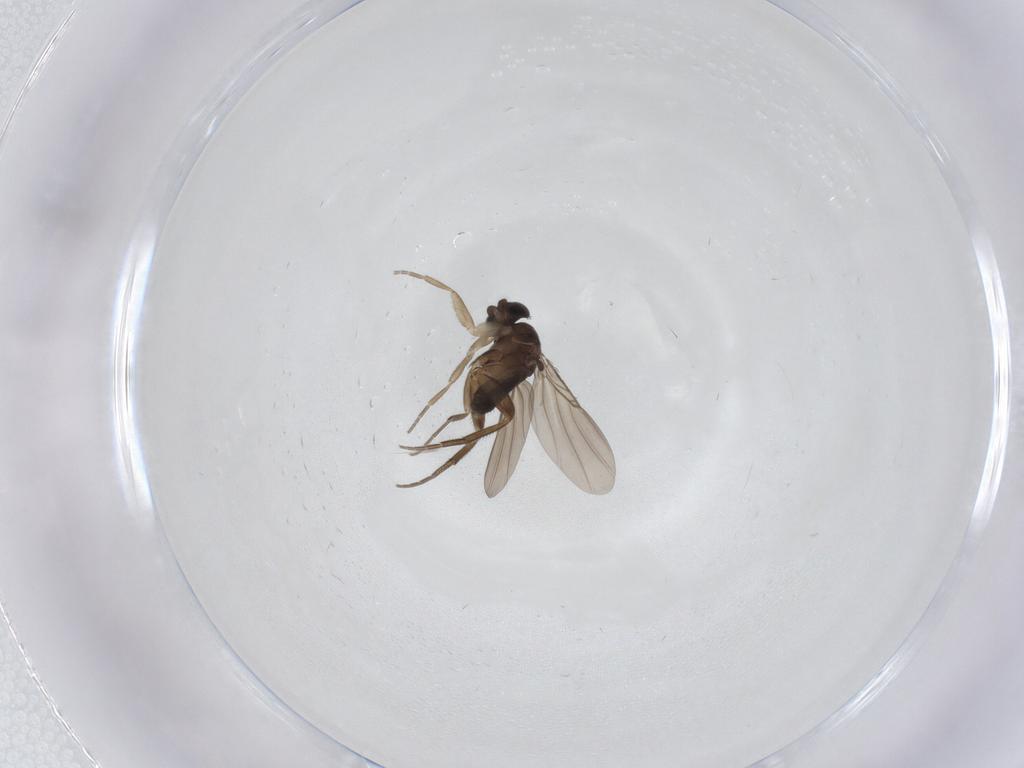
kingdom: Animalia
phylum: Arthropoda
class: Insecta
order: Diptera
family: Phoridae
